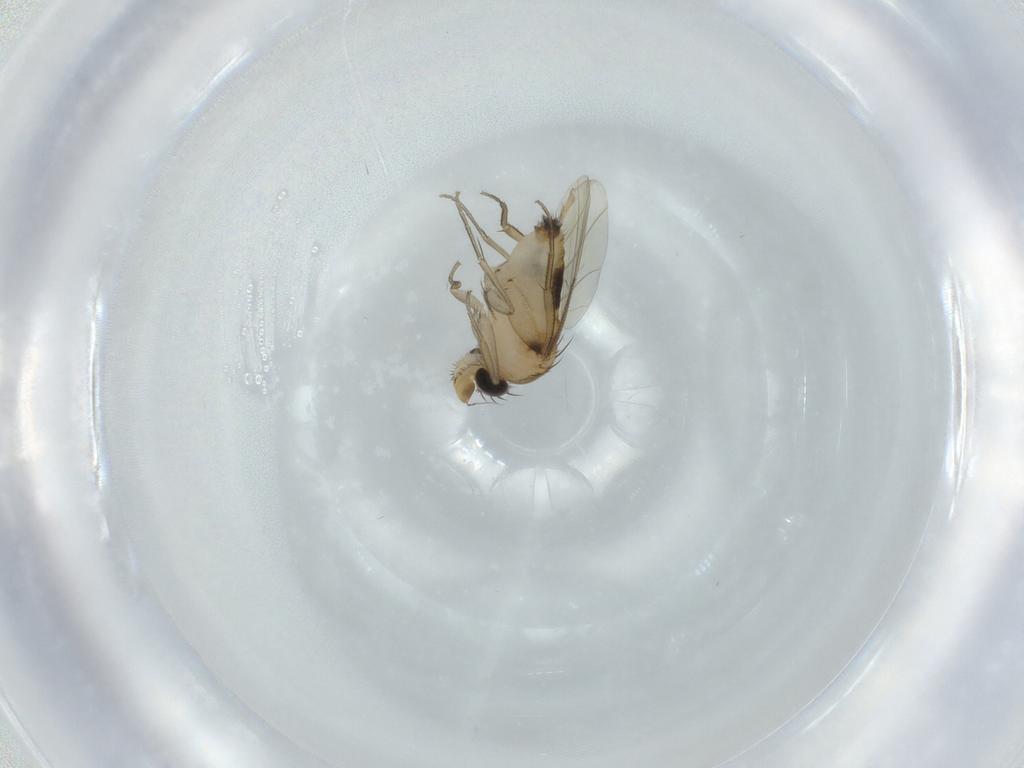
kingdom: Animalia
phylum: Arthropoda
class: Insecta
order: Diptera
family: Phoridae
